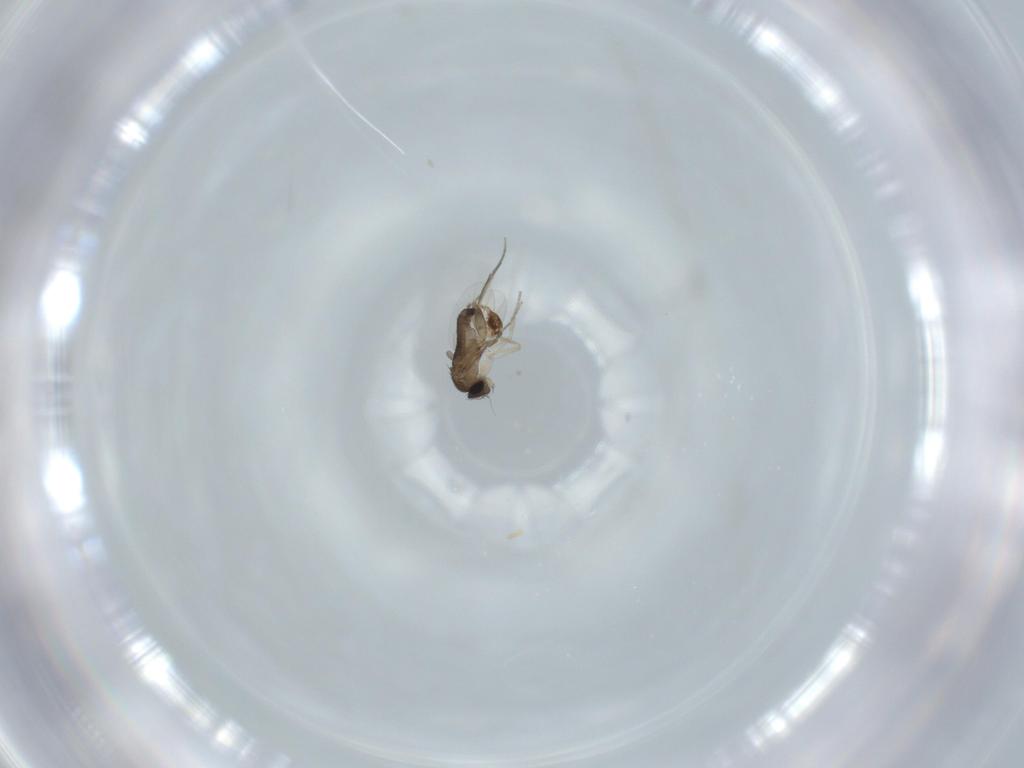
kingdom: Animalia
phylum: Arthropoda
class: Insecta
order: Diptera
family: Phoridae
